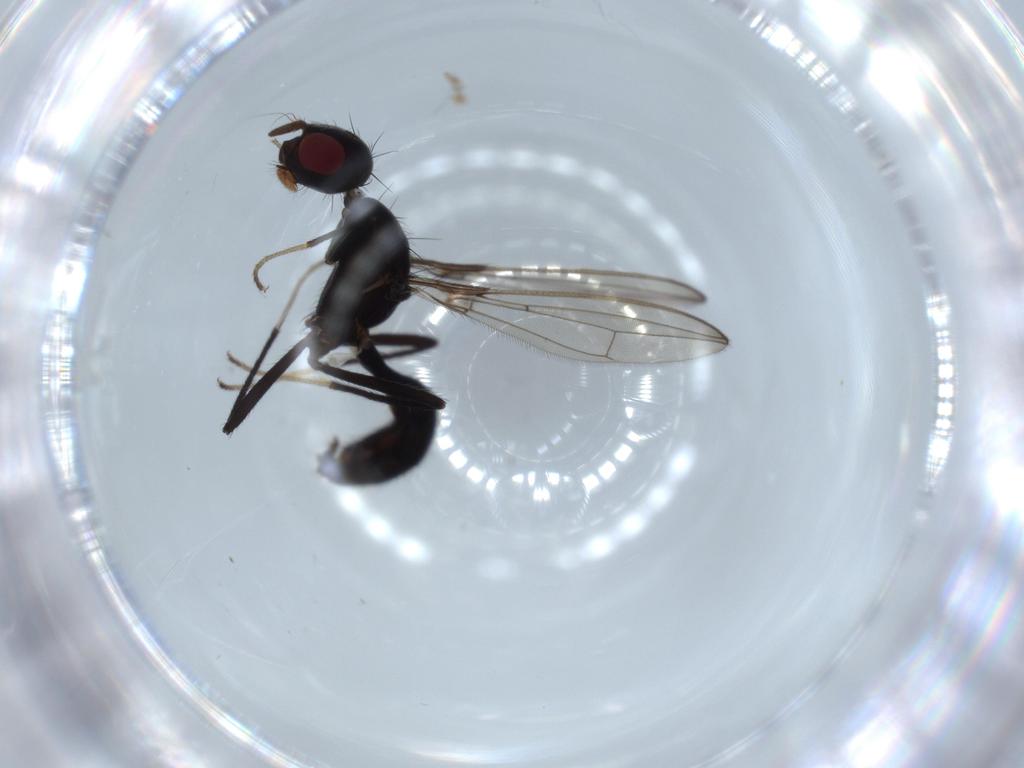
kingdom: Animalia
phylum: Arthropoda
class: Insecta
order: Diptera
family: Richardiidae
